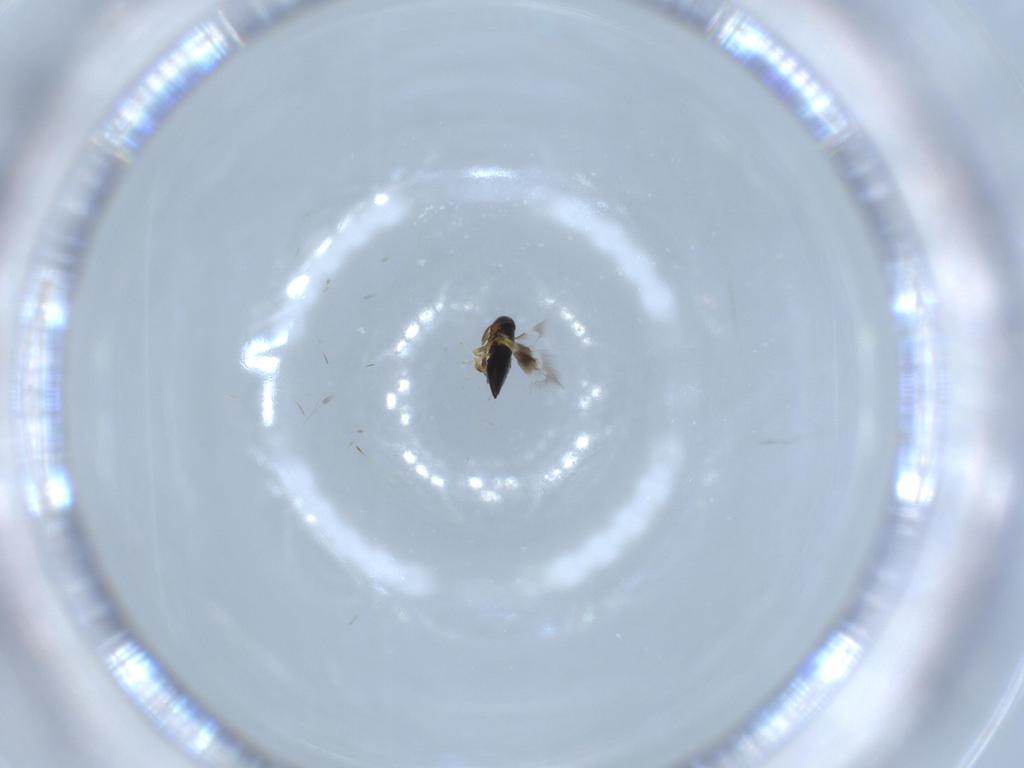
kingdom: Animalia
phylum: Arthropoda
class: Insecta
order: Hymenoptera
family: Signiphoridae
